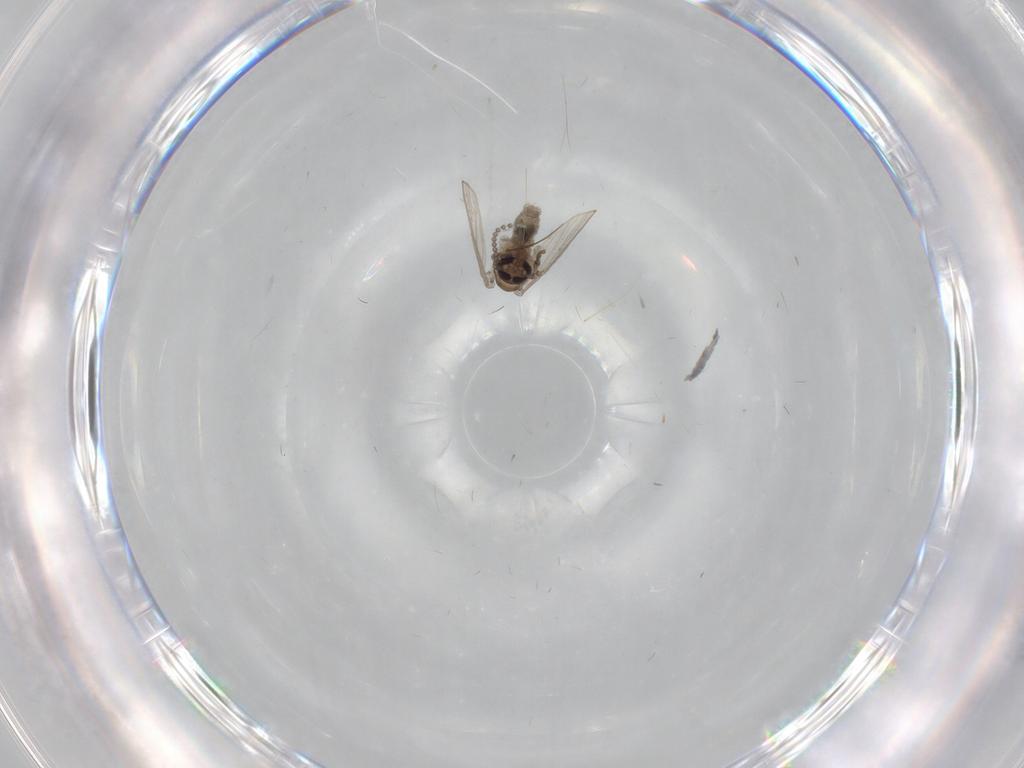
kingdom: Animalia
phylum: Arthropoda
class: Insecta
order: Diptera
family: Psychodidae
